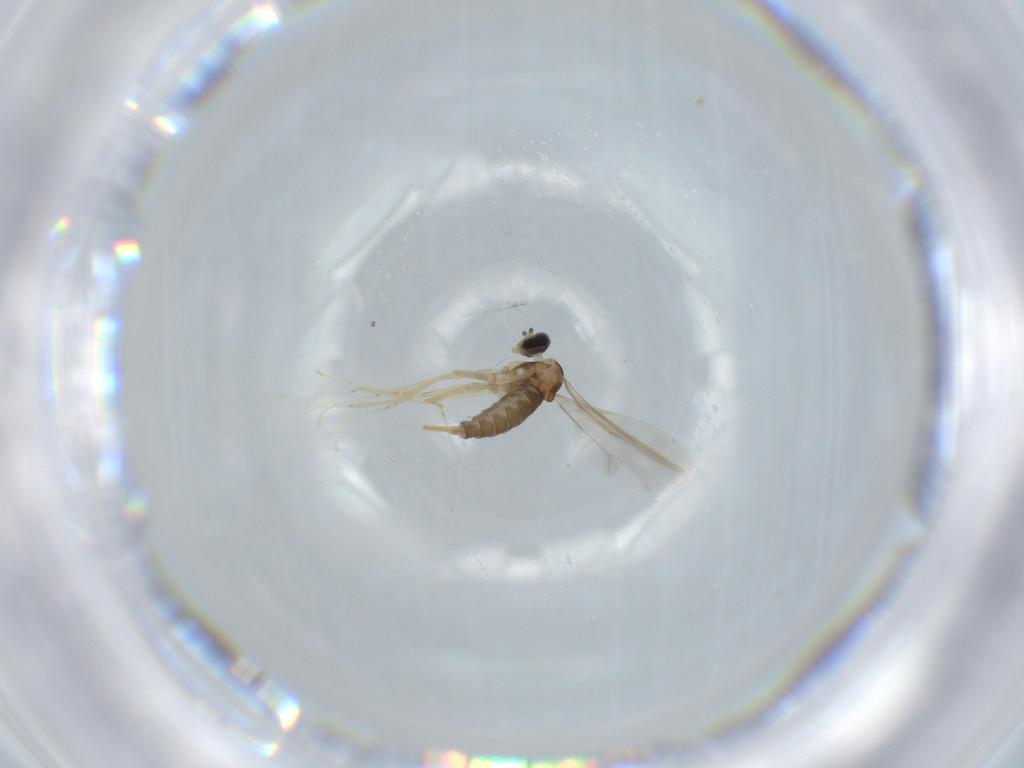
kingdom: Animalia
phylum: Arthropoda
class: Insecta
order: Diptera
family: Cecidomyiidae
